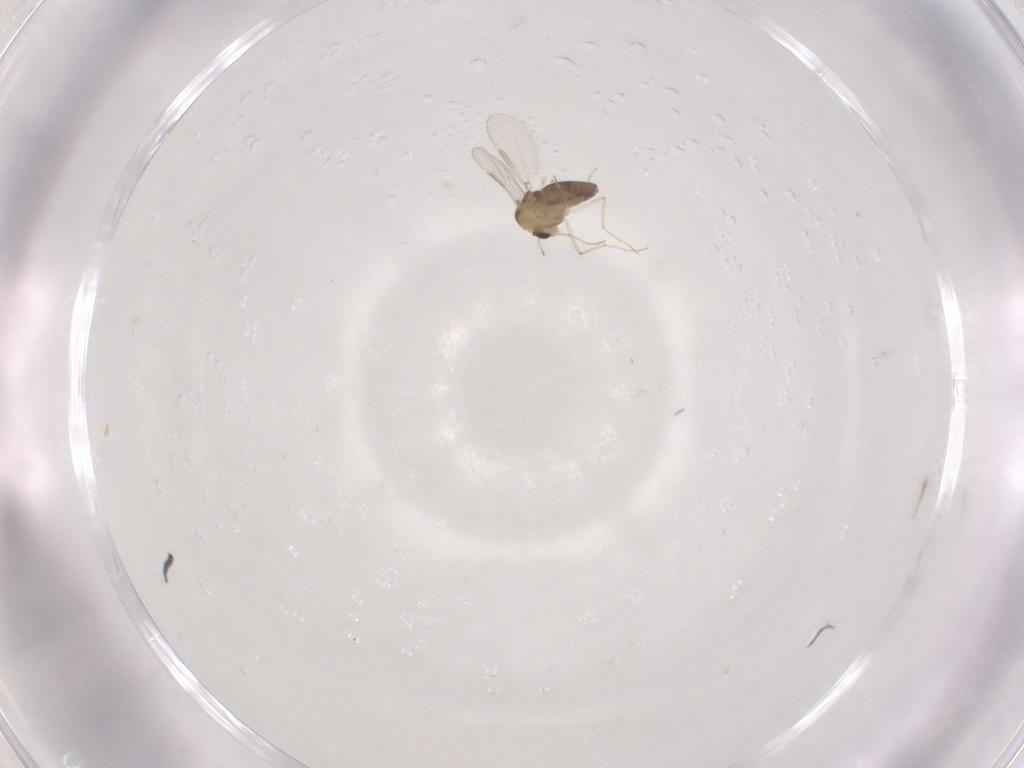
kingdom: Animalia
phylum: Arthropoda
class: Insecta
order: Diptera
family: Chironomidae
